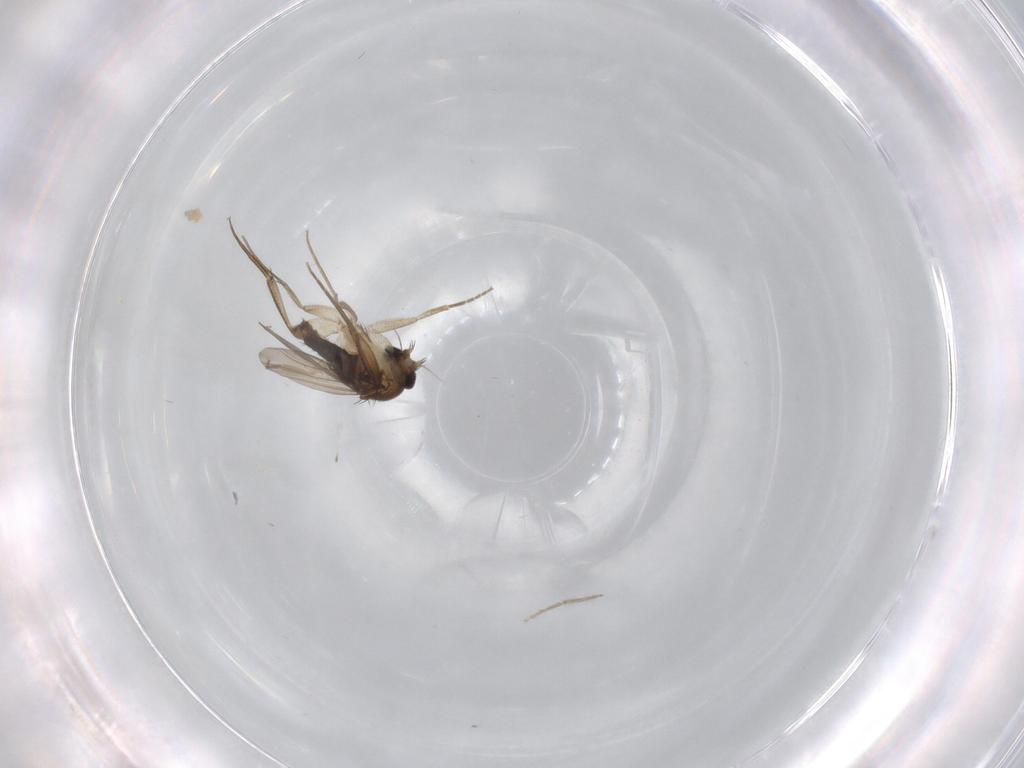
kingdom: Animalia
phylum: Arthropoda
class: Insecta
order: Diptera
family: Phoridae
